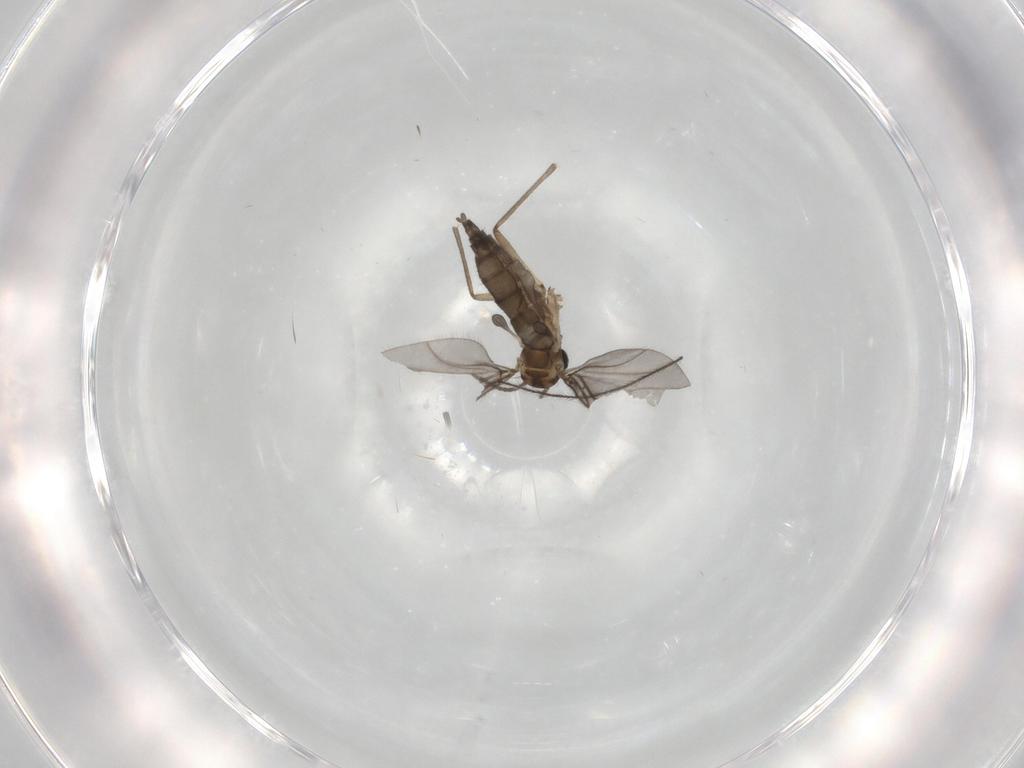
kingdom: Animalia
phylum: Arthropoda
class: Insecta
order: Diptera
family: Sciaridae
